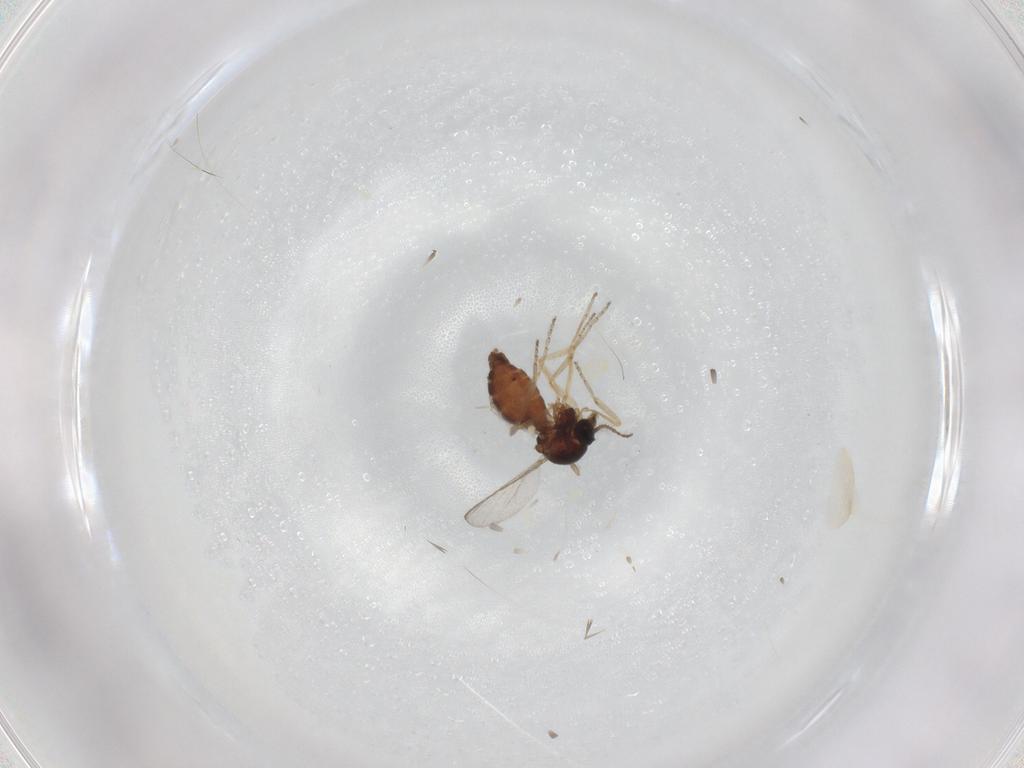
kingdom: Animalia
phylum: Arthropoda
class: Insecta
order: Diptera
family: Ceratopogonidae
